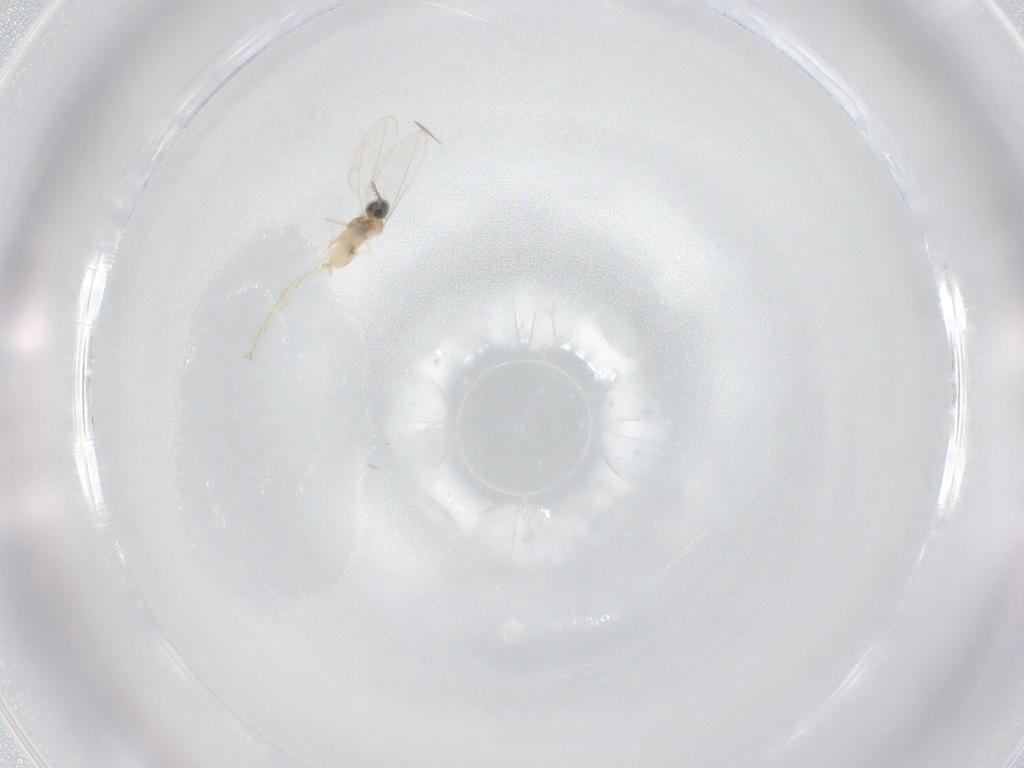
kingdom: Animalia
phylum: Arthropoda
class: Insecta
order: Diptera
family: Cecidomyiidae
